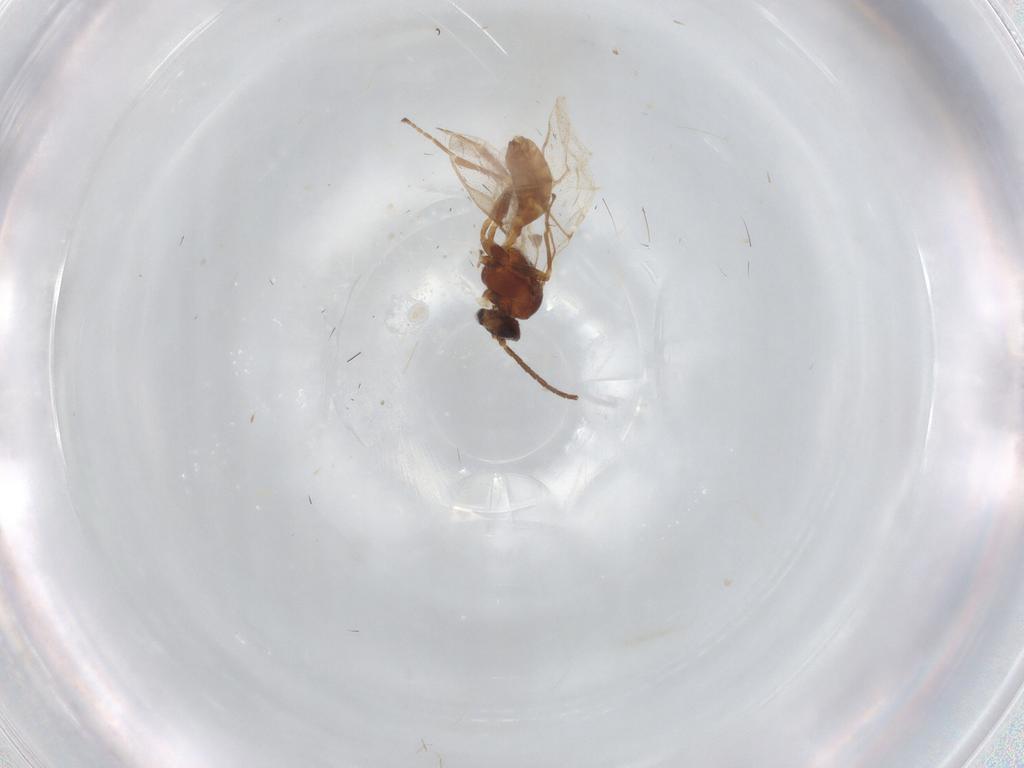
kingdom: Animalia
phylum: Arthropoda
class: Insecta
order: Hymenoptera
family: Braconidae
